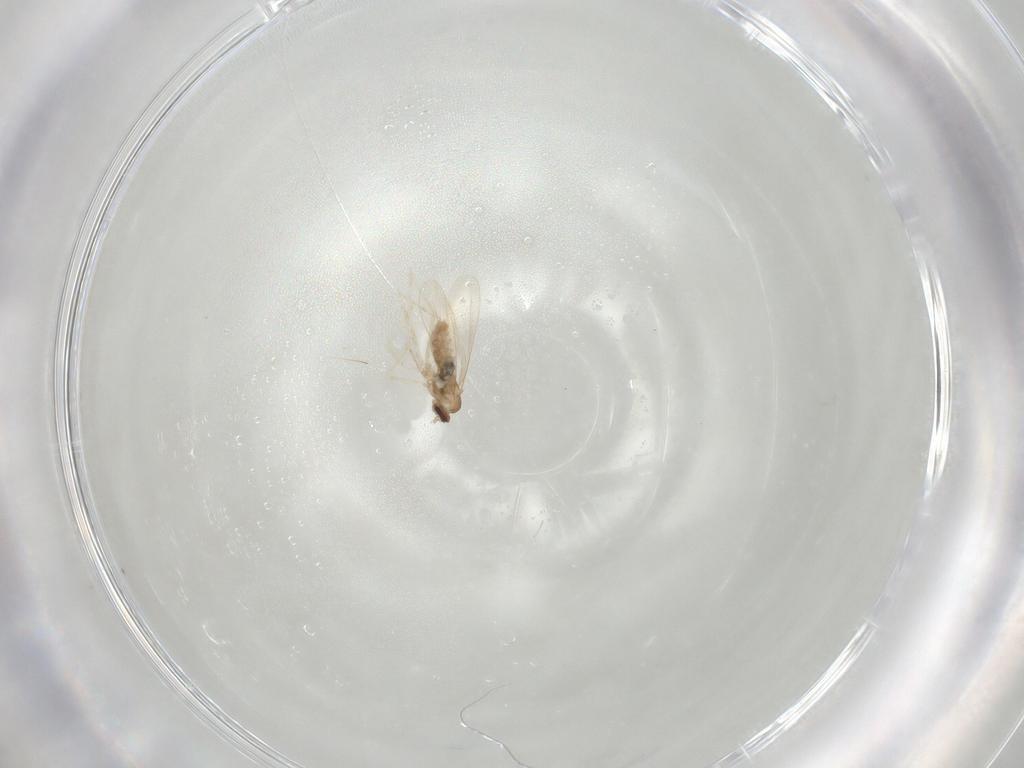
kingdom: Animalia
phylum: Arthropoda
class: Insecta
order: Diptera
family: Cecidomyiidae
